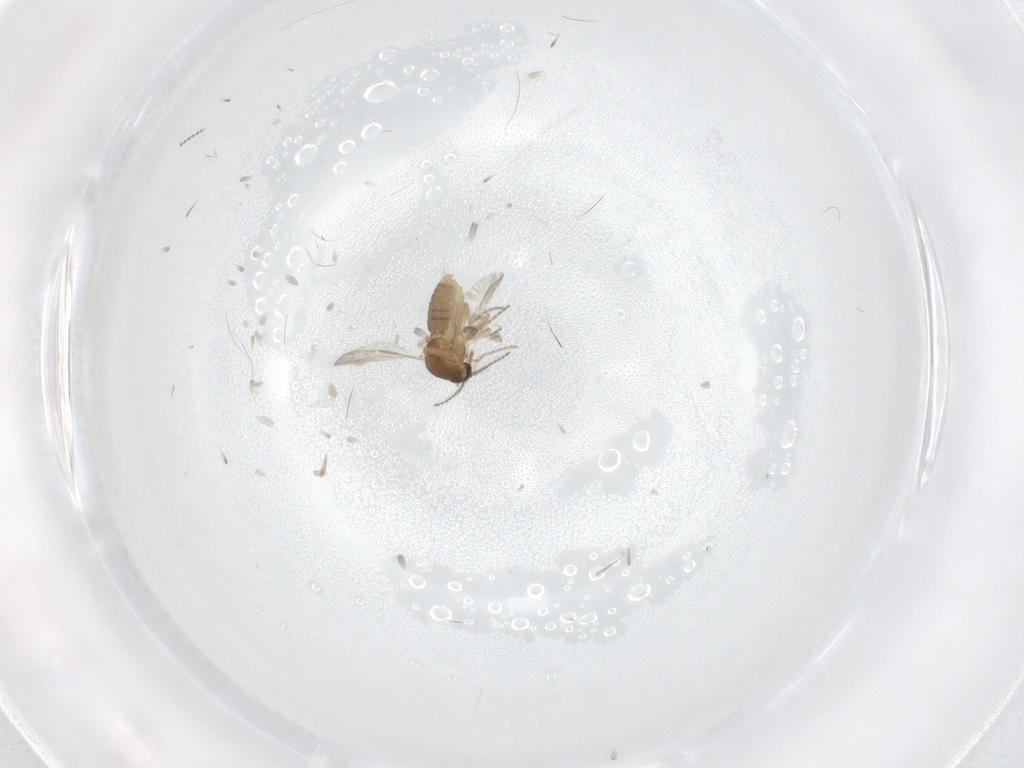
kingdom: Animalia
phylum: Arthropoda
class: Insecta
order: Diptera
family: Ceratopogonidae
